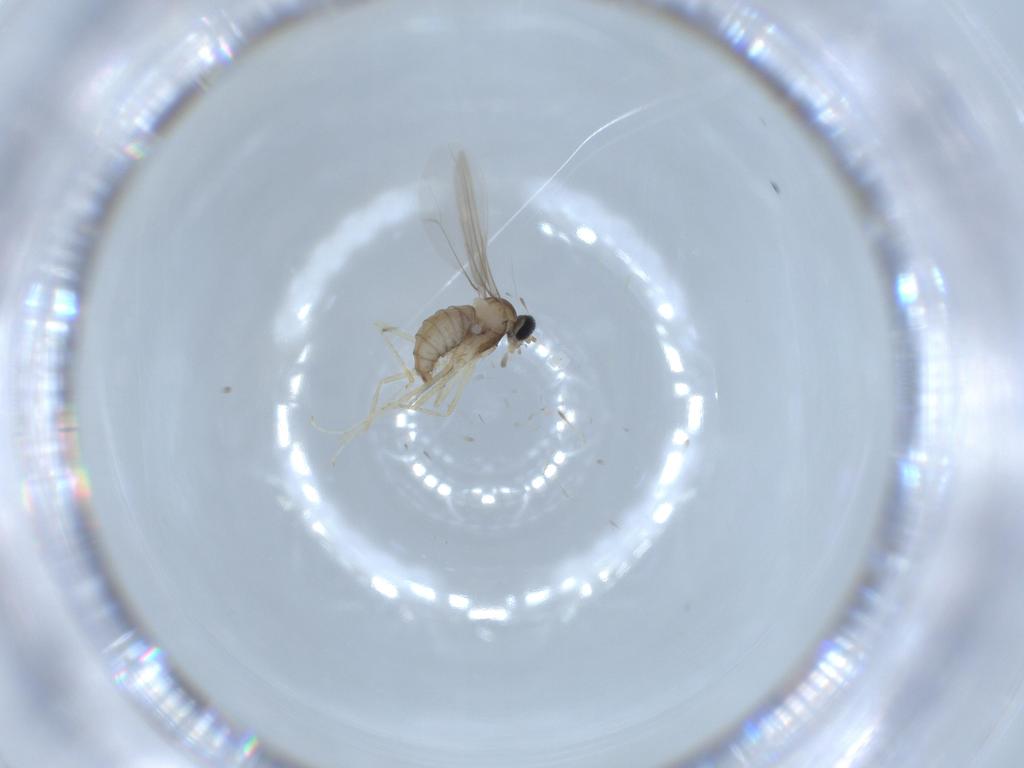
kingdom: Animalia
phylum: Arthropoda
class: Insecta
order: Diptera
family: Cecidomyiidae
